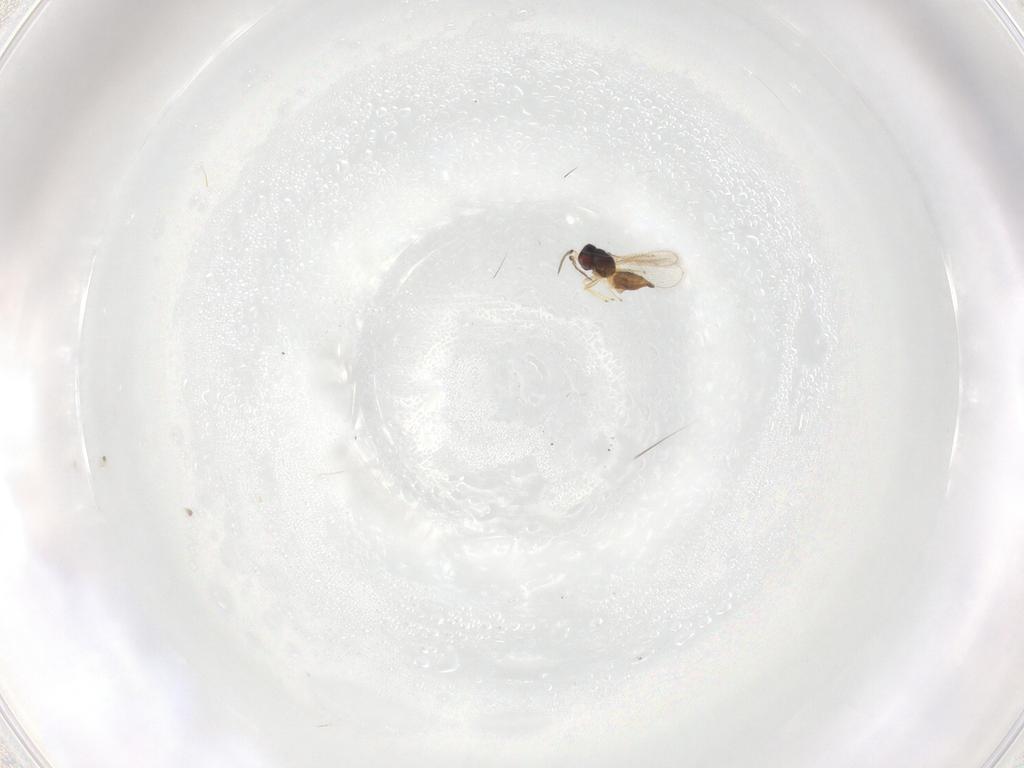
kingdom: Animalia
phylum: Arthropoda
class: Insecta
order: Hymenoptera
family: Eulophidae
